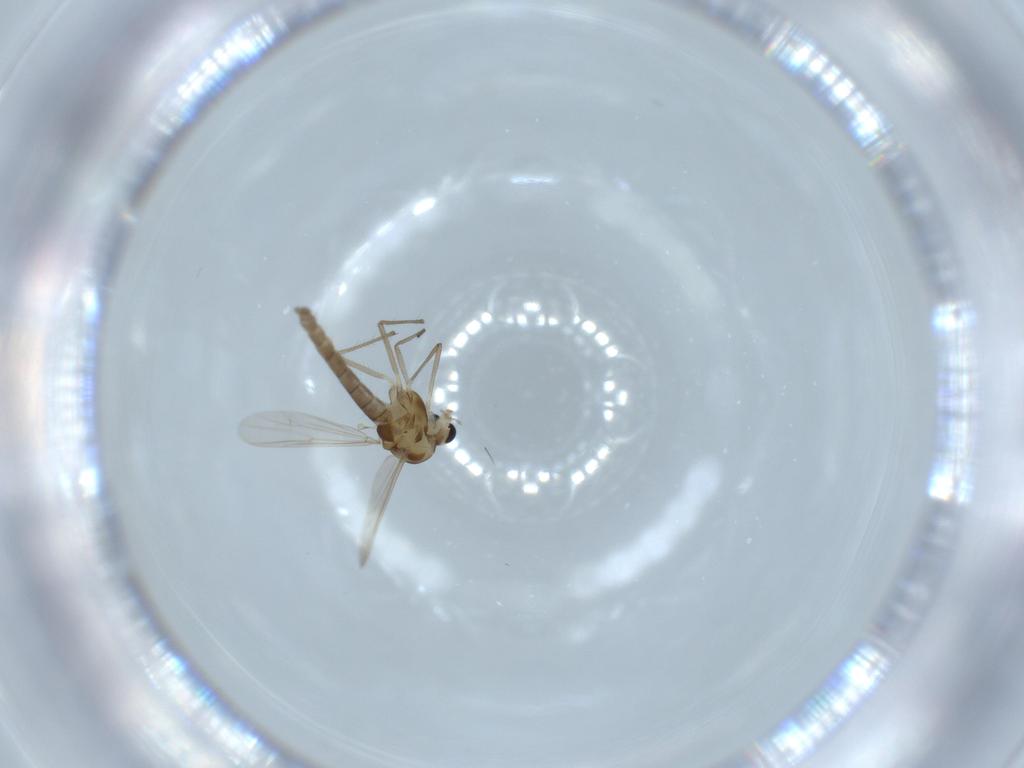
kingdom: Animalia
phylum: Arthropoda
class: Insecta
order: Diptera
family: Chironomidae
